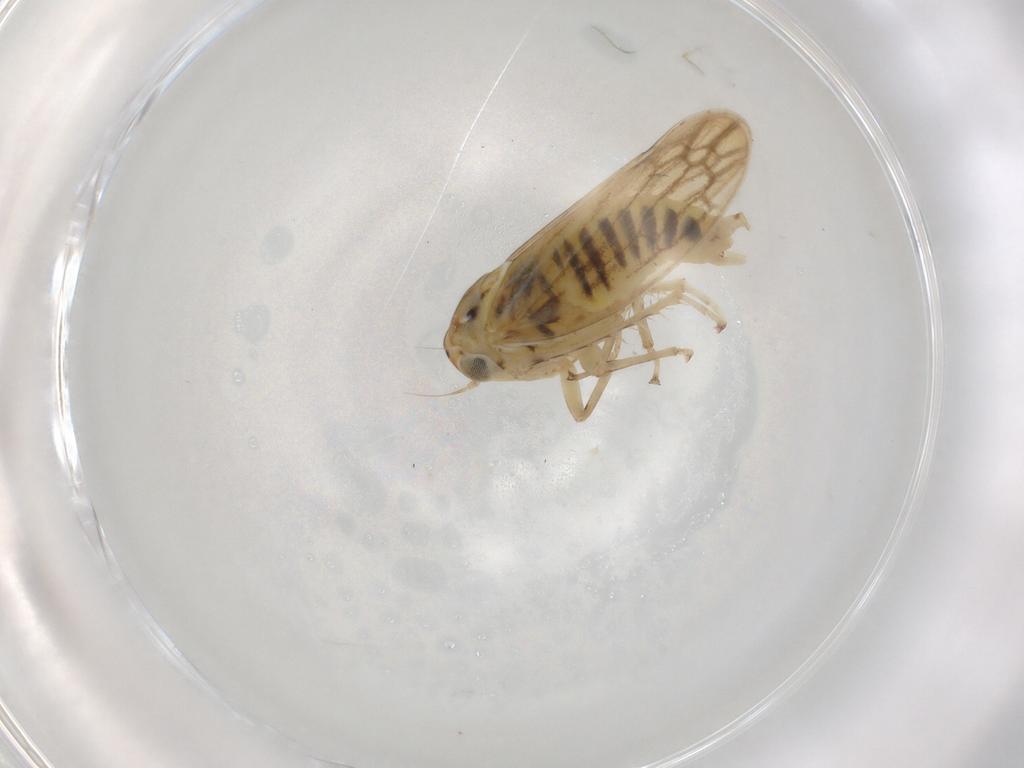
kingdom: Animalia
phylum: Arthropoda
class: Insecta
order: Hemiptera
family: Cicadellidae
